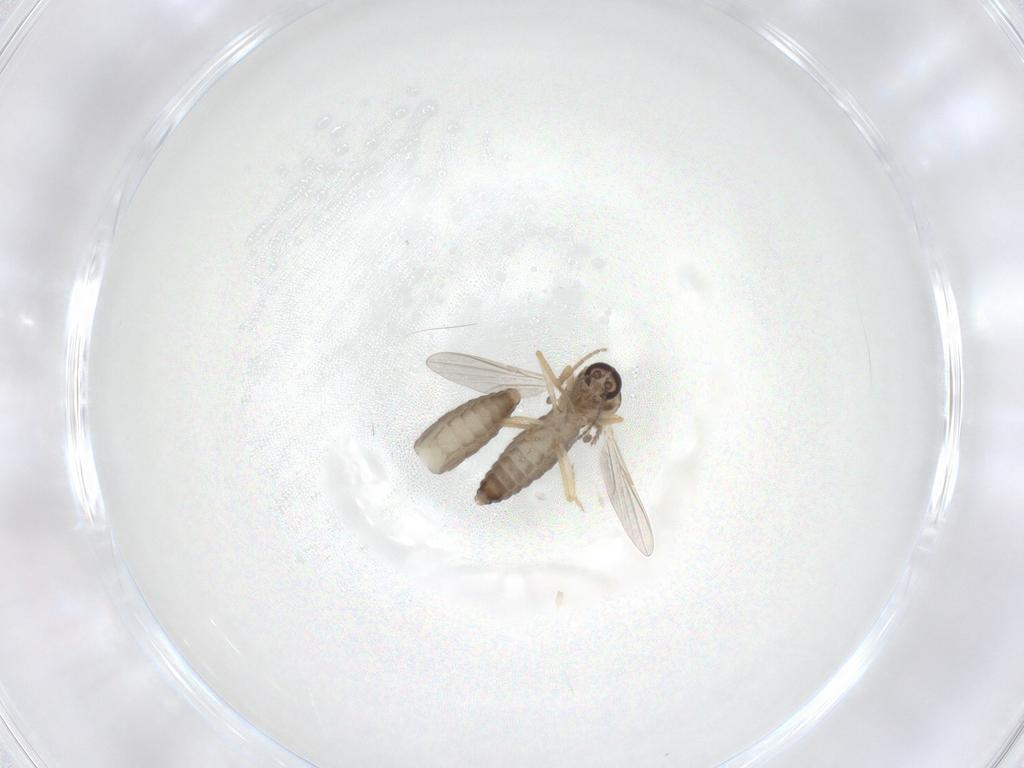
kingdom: Animalia
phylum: Arthropoda
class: Insecta
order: Diptera
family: Ceratopogonidae
